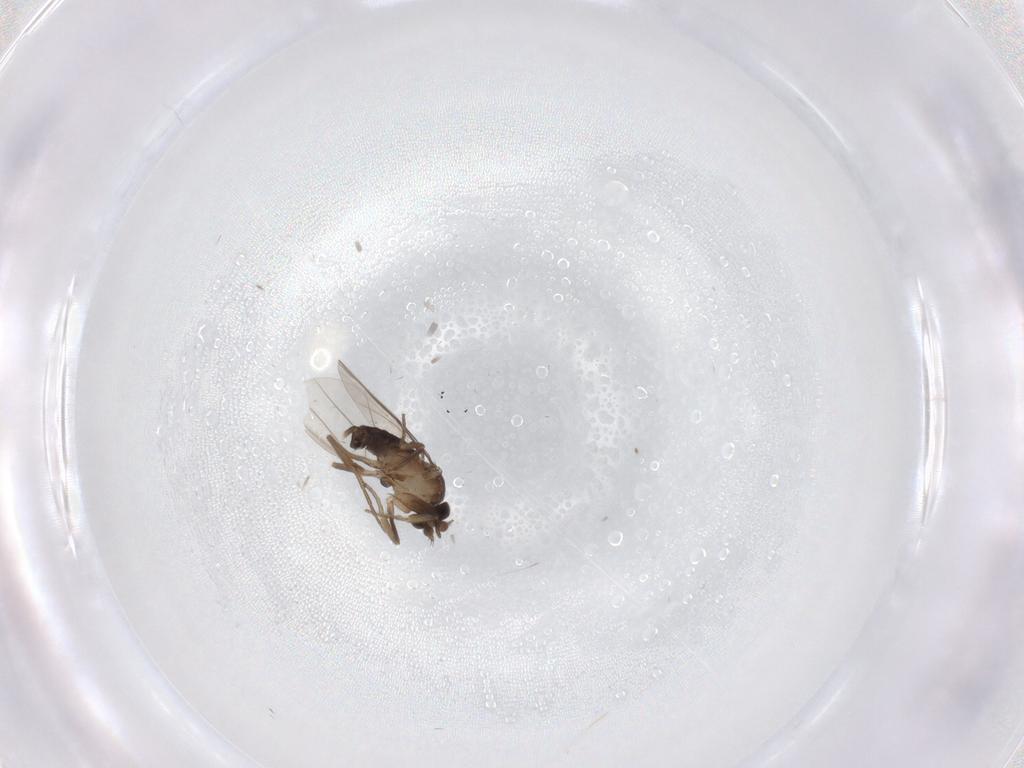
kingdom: Animalia
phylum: Arthropoda
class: Insecta
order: Diptera
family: Phoridae
